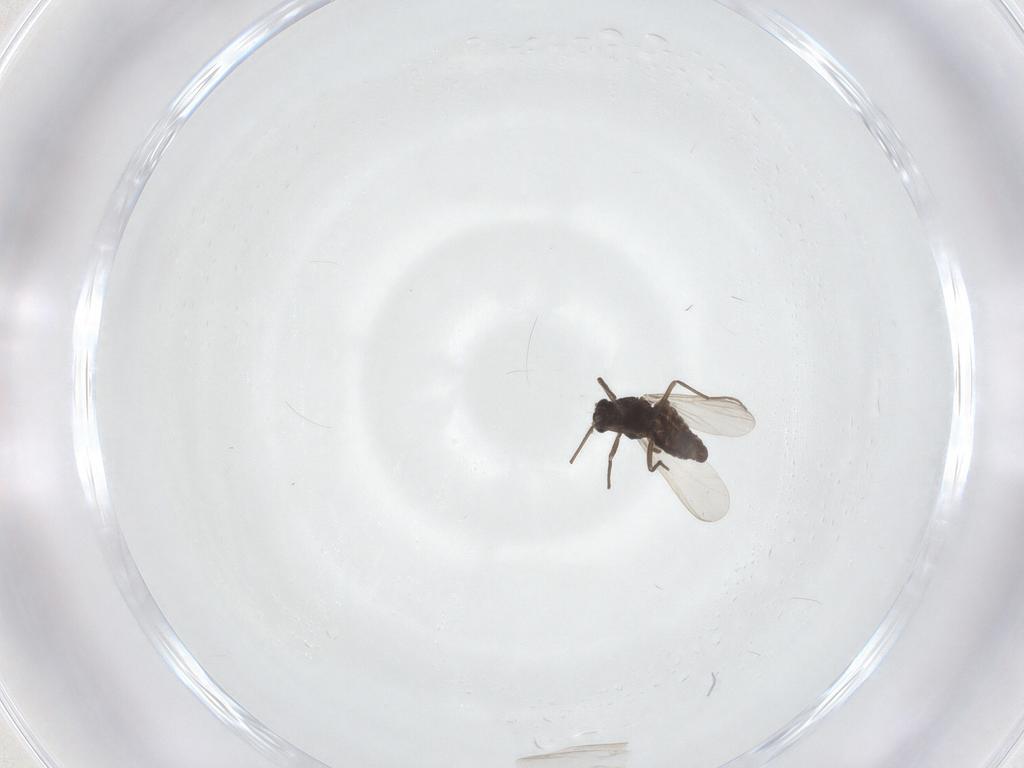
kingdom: Animalia
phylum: Arthropoda
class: Insecta
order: Diptera
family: Chironomidae
